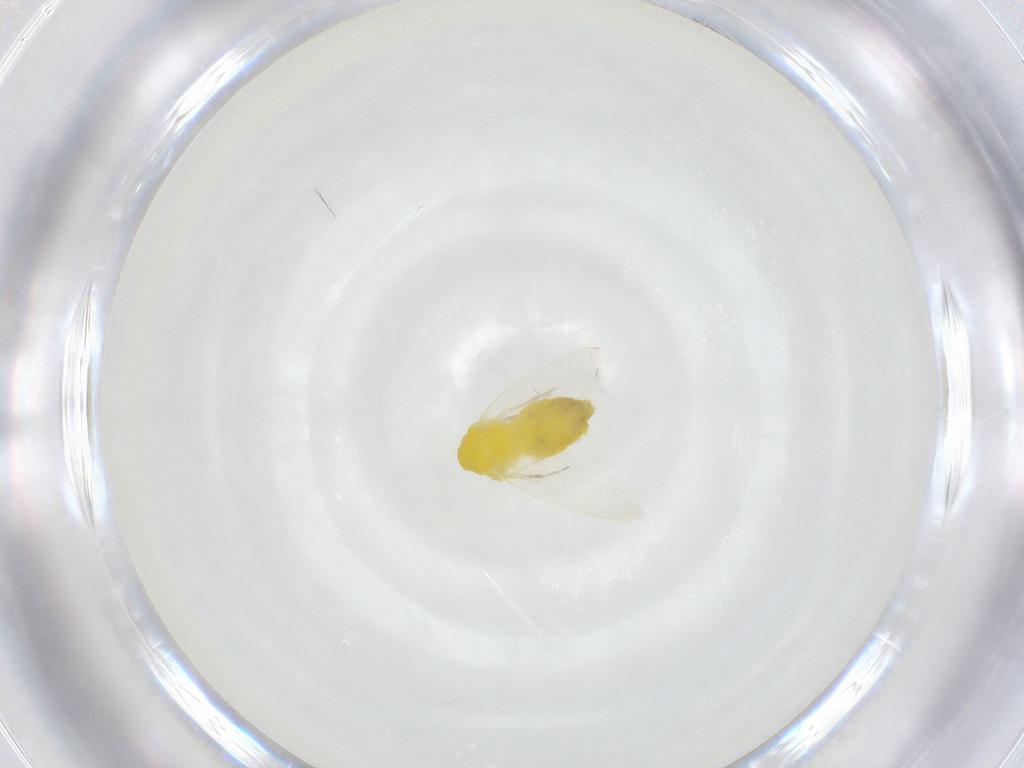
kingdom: Animalia
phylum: Arthropoda
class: Insecta
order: Hemiptera
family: Aleyrodidae
